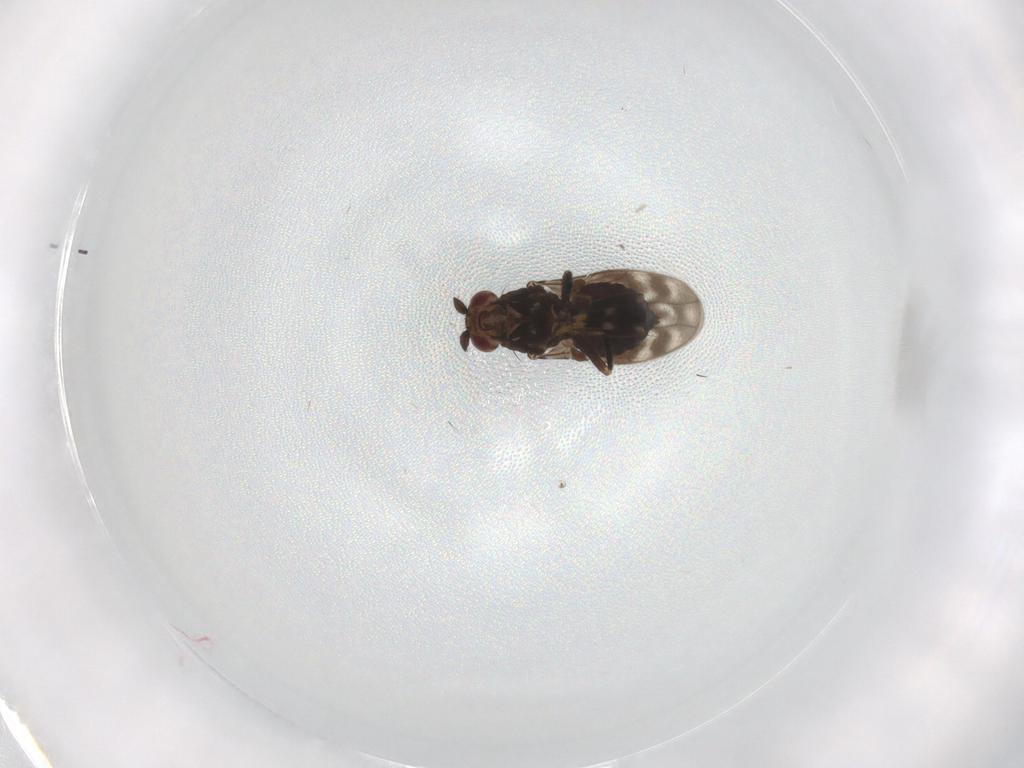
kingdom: Animalia
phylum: Arthropoda
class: Insecta
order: Diptera
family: Sphaeroceridae
